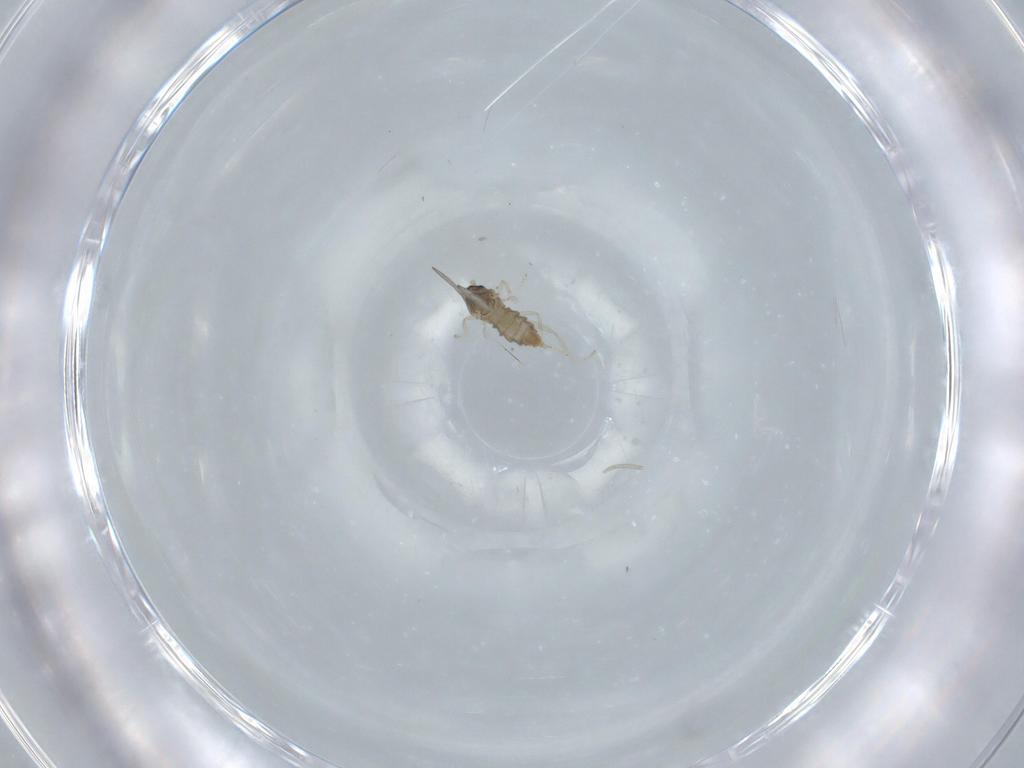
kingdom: Animalia
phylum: Arthropoda
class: Insecta
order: Diptera
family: Cecidomyiidae
